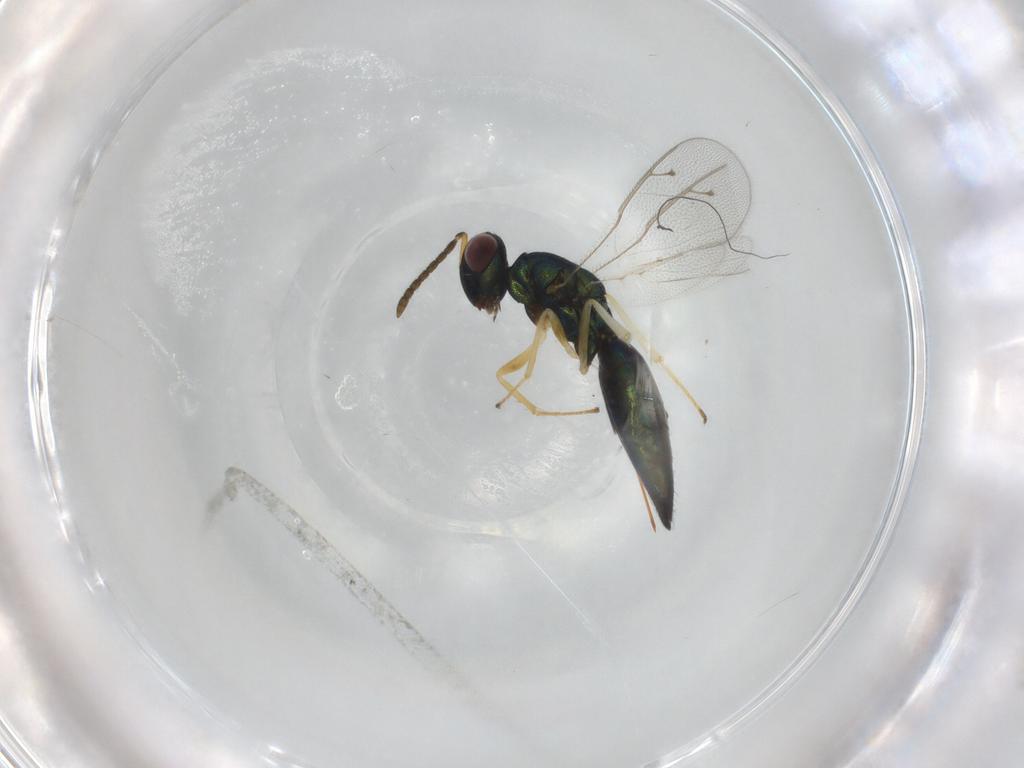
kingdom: Animalia
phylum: Arthropoda
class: Insecta
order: Hymenoptera
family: Pteromalidae
